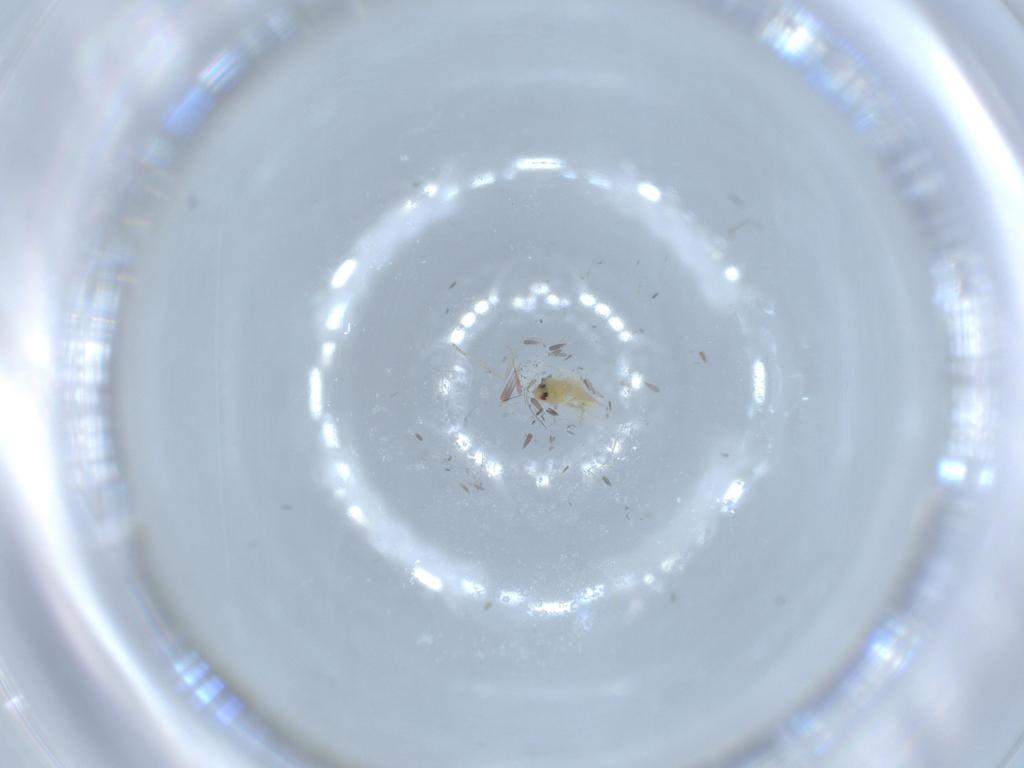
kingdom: Animalia
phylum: Arthropoda
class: Insecta
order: Hemiptera
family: Aleyrodidae
